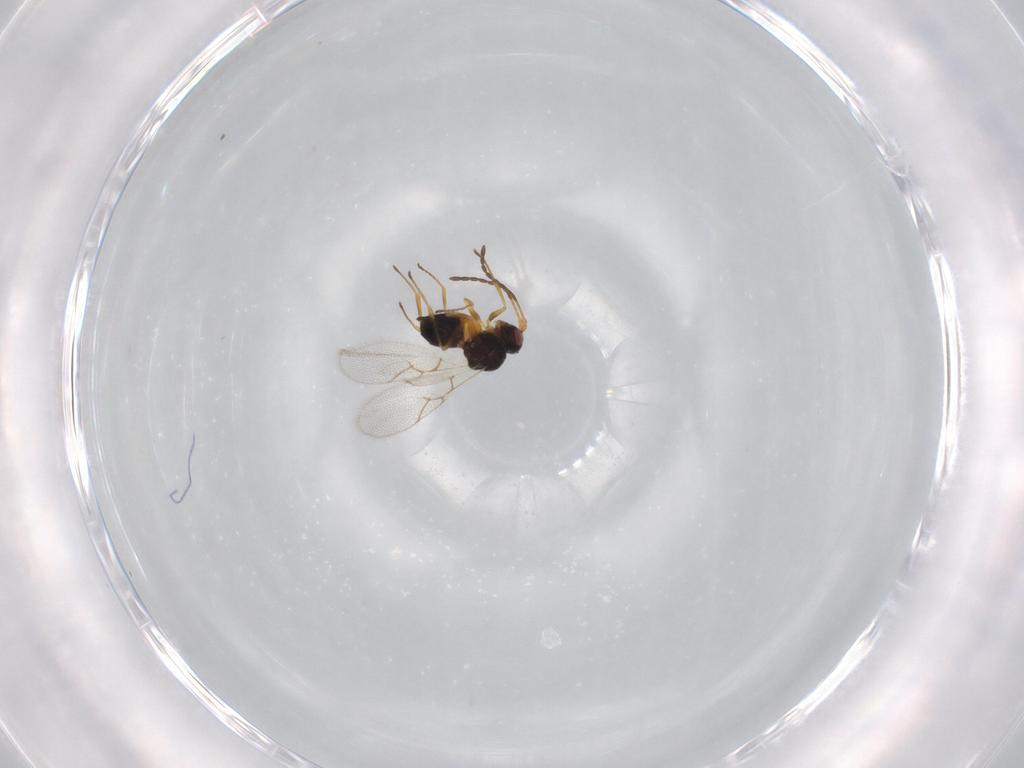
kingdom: Animalia
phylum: Arthropoda
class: Insecta
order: Hymenoptera
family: Figitidae
